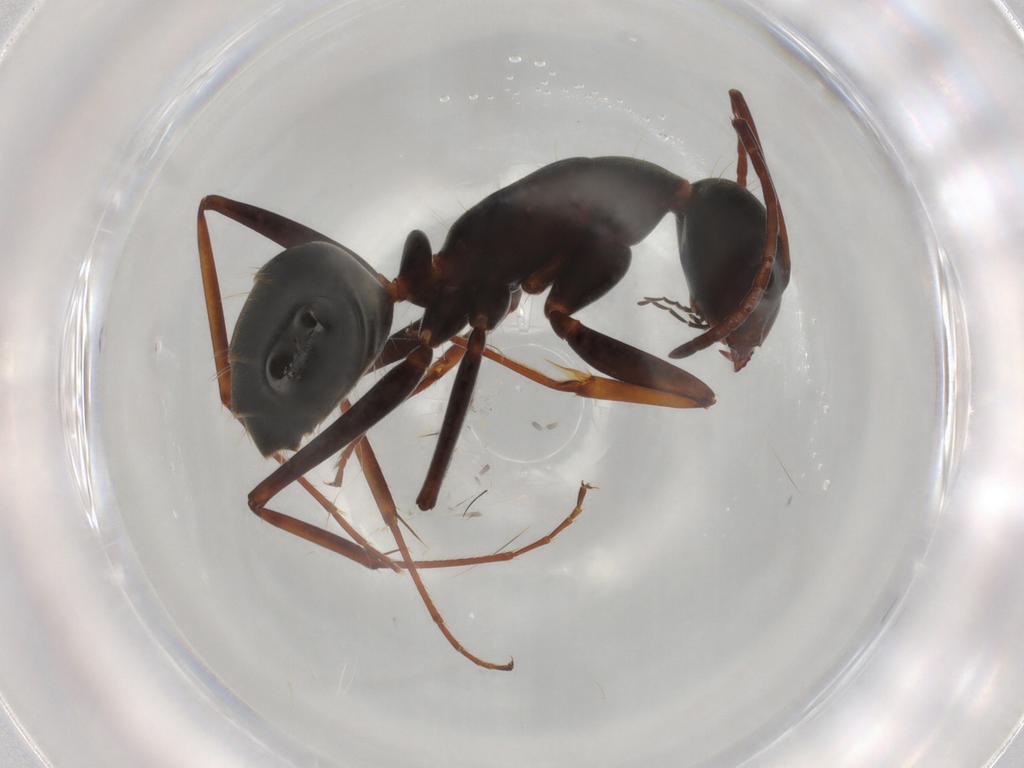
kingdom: Animalia
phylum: Arthropoda
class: Insecta
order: Hymenoptera
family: Formicidae
